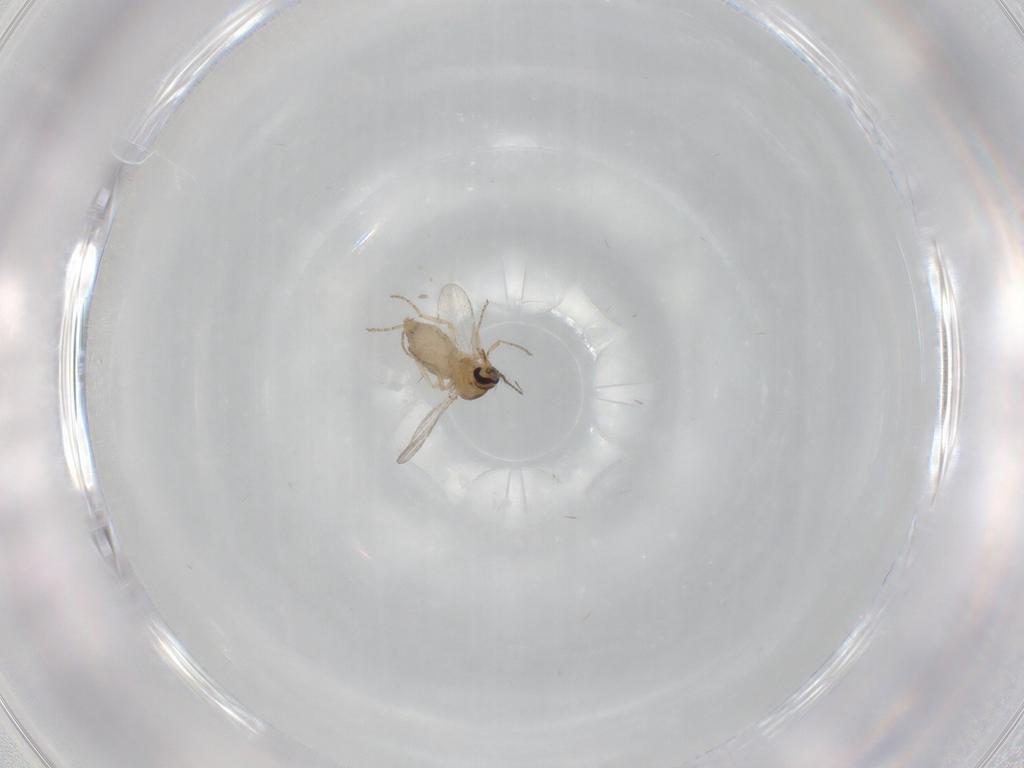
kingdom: Animalia
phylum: Arthropoda
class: Insecta
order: Diptera
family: Ceratopogonidae
